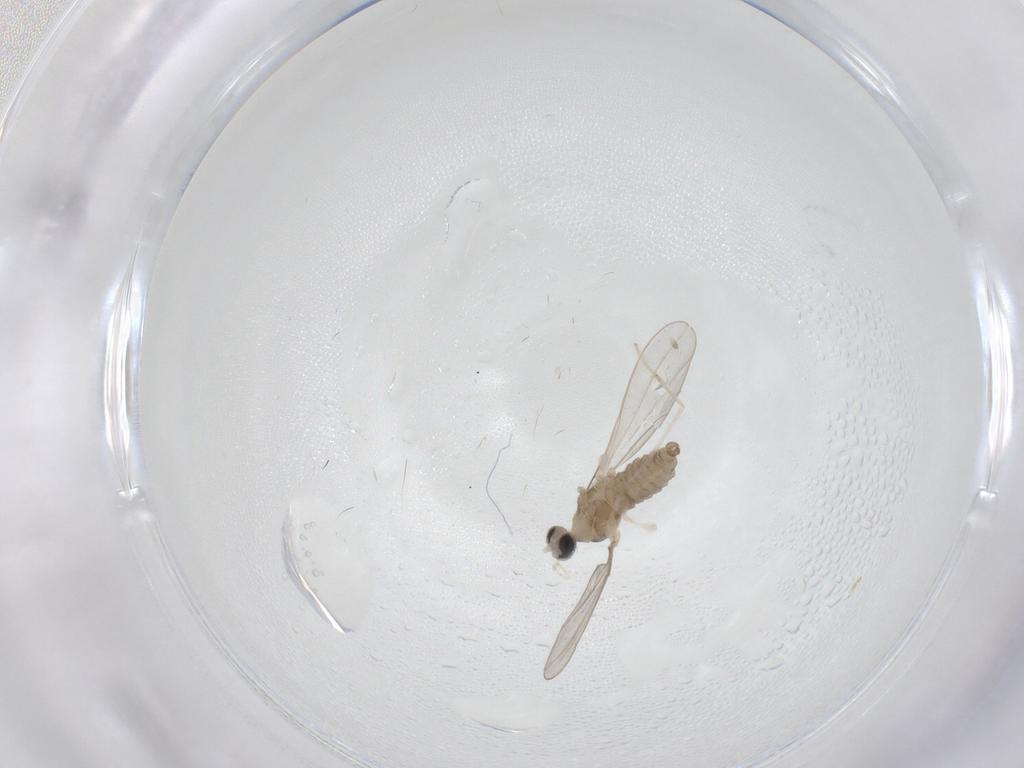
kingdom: Animalia
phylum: Arthropoda
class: Insecta
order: Diptera
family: Cecidomyiidae
